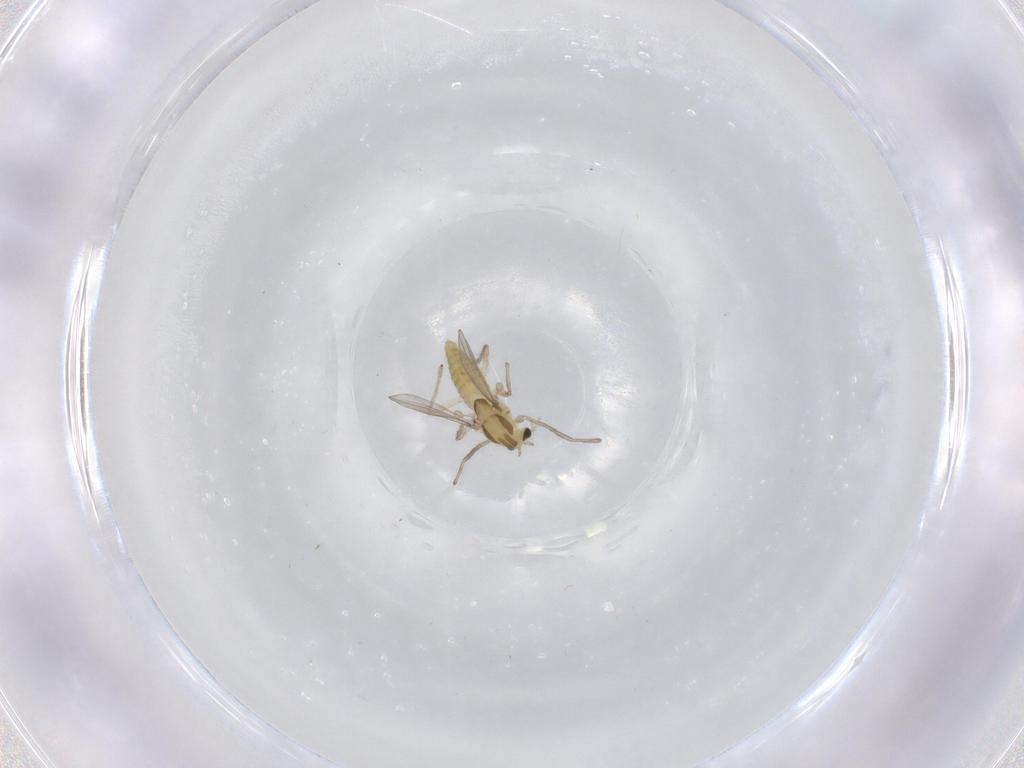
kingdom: Animalia
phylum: Arthropoda
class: Insecta
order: Diptera
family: Chironomidae
